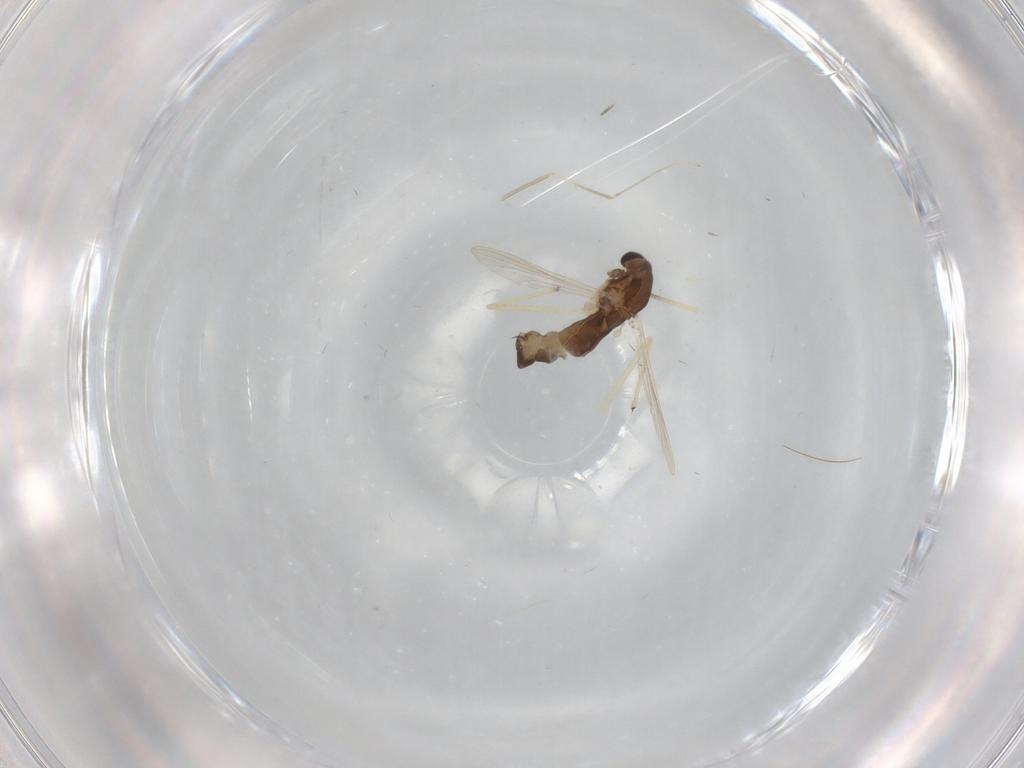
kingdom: Animalia
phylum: Arthropoda
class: Insecta
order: Diptera
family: Chironomidae
